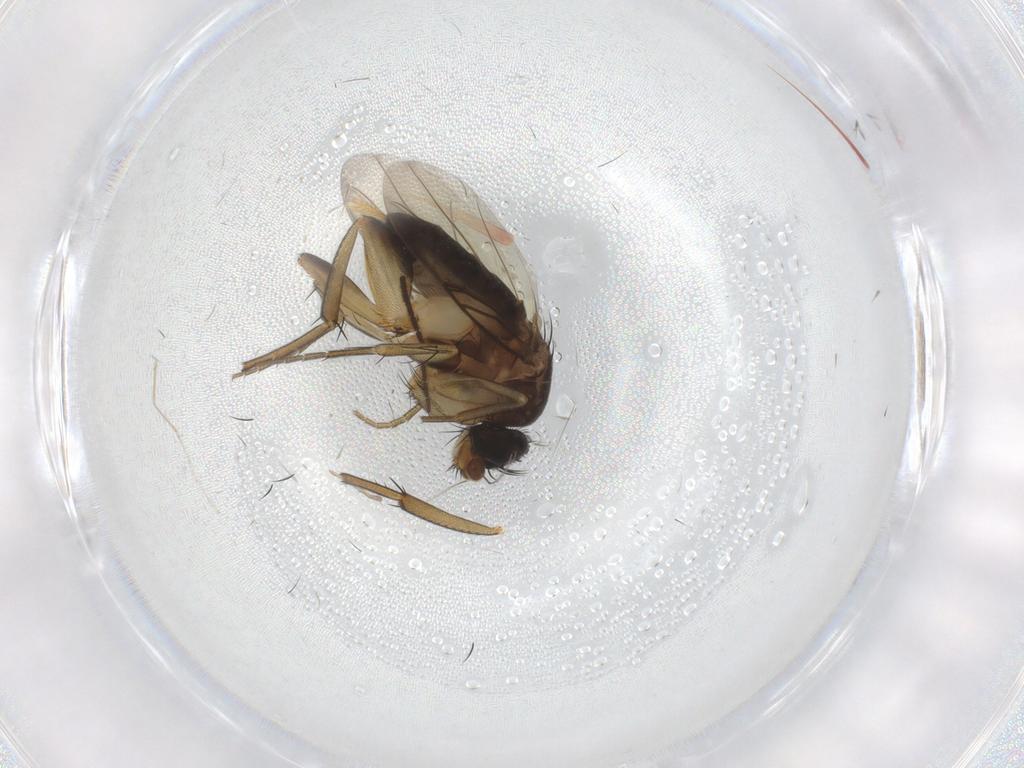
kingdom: Animalia
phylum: Arthropoda
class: Insecta
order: Diptera
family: Phoridae
